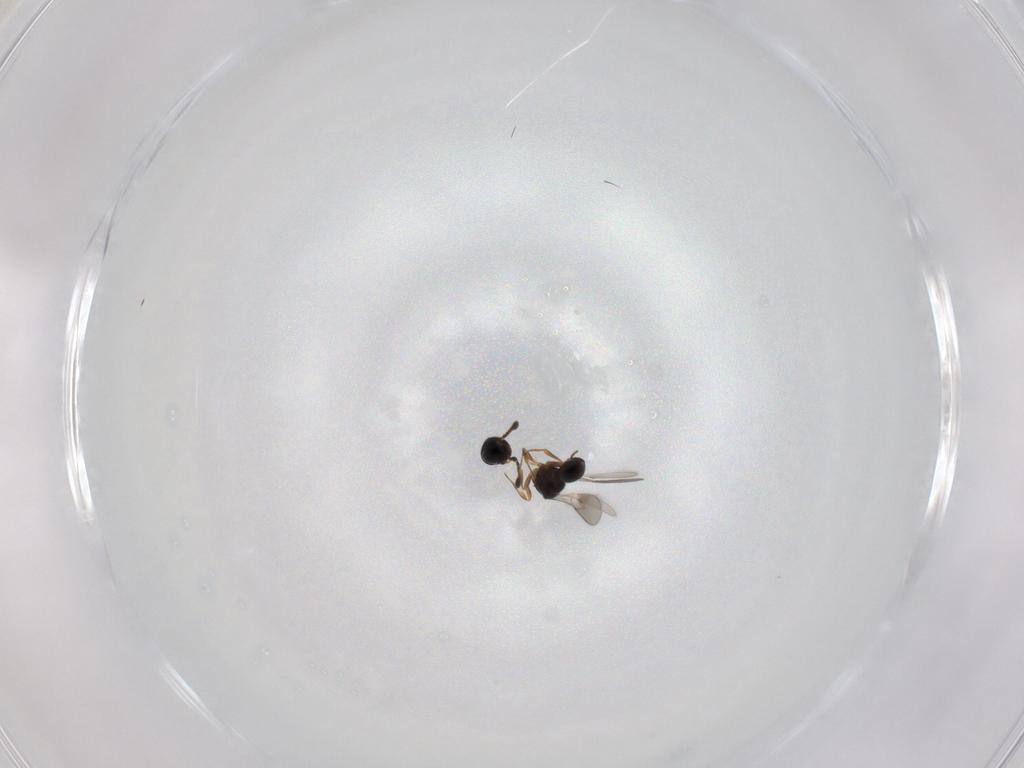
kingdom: Animalia
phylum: Arthropoda
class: Insecta
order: Hymenoptera
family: Scelionidae
